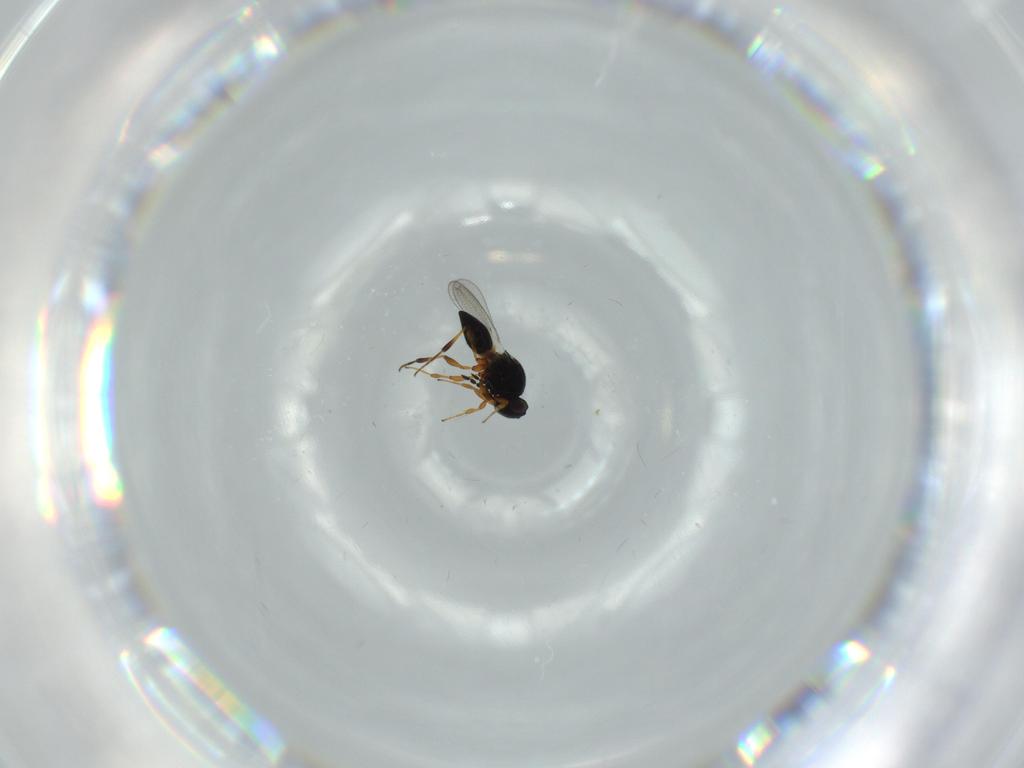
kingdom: Animalia
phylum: Arthropoda
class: Insecta
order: Hymenoptera
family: Platygastridae
